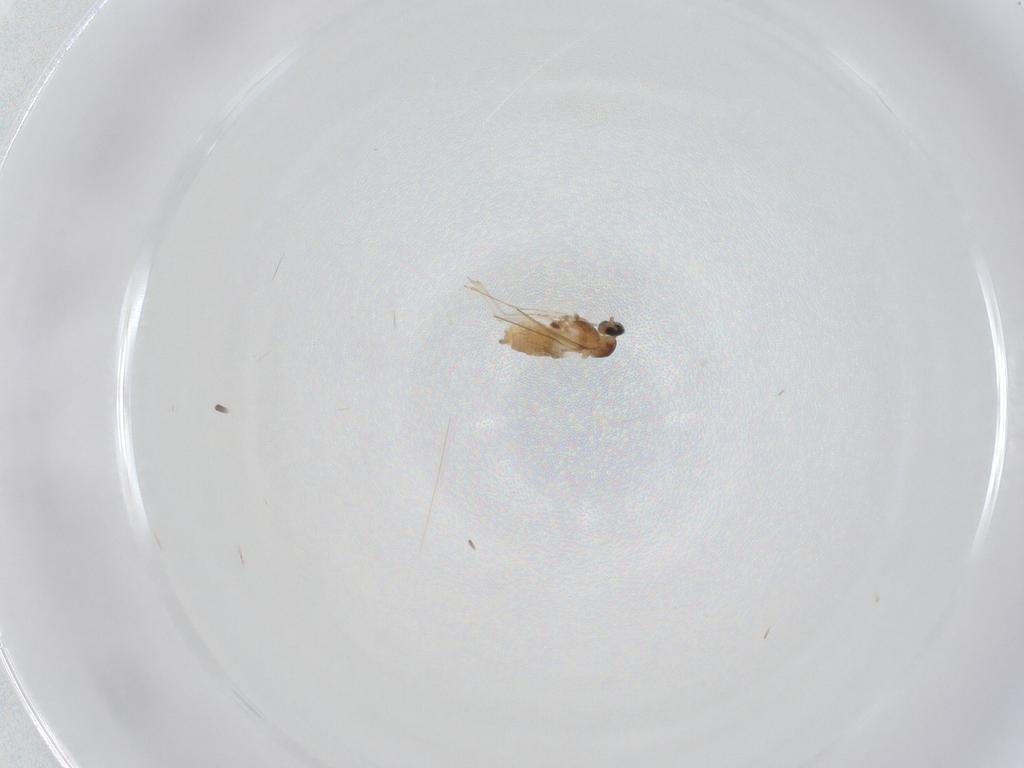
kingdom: Animalia
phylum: Arthropoda
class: Insecta
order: Diptera
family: Cecidomyiidae
